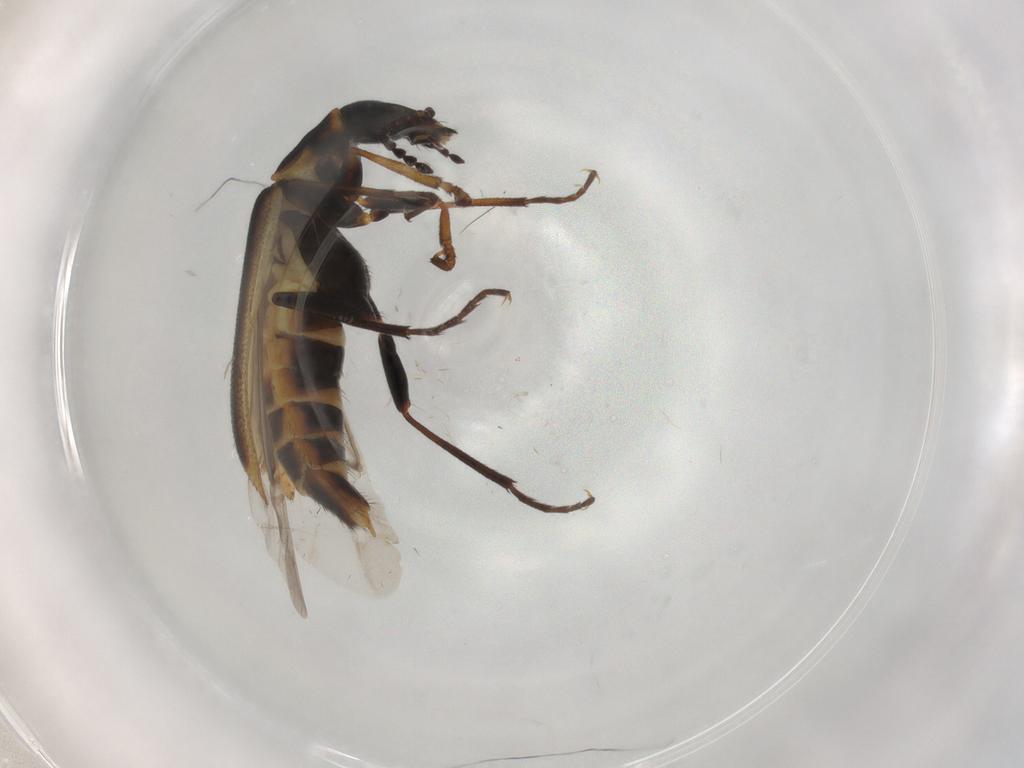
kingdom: Animalia
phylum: Arthropoda
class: Insecta
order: Coleoptera
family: Melyridae
